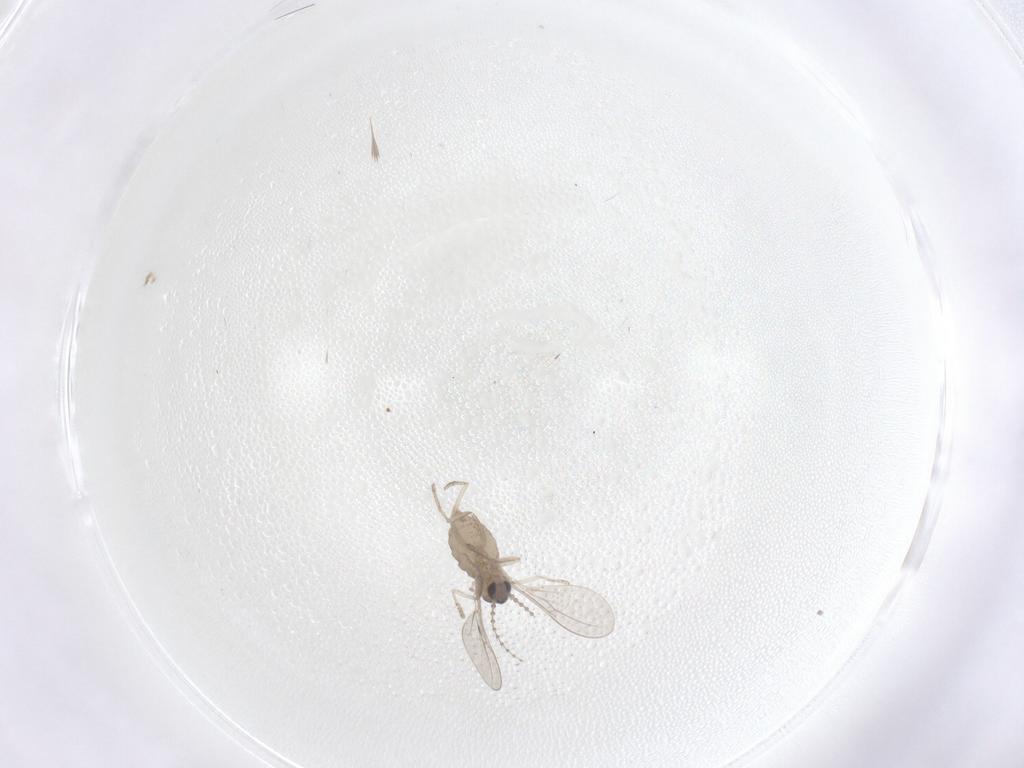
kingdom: Animalia
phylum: Arthropoda
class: Insecta
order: Diptera
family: Cecidomyiidae
